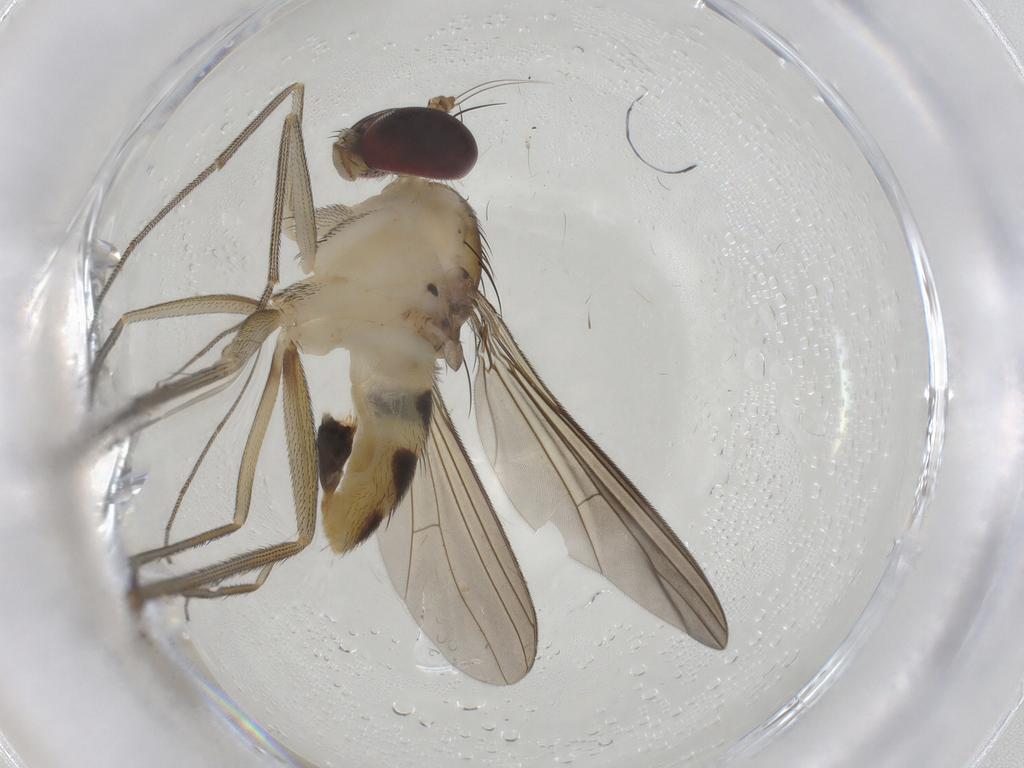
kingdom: Animalia
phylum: Arthropoda
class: Insecta
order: Diptera
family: Dolichopodidae
